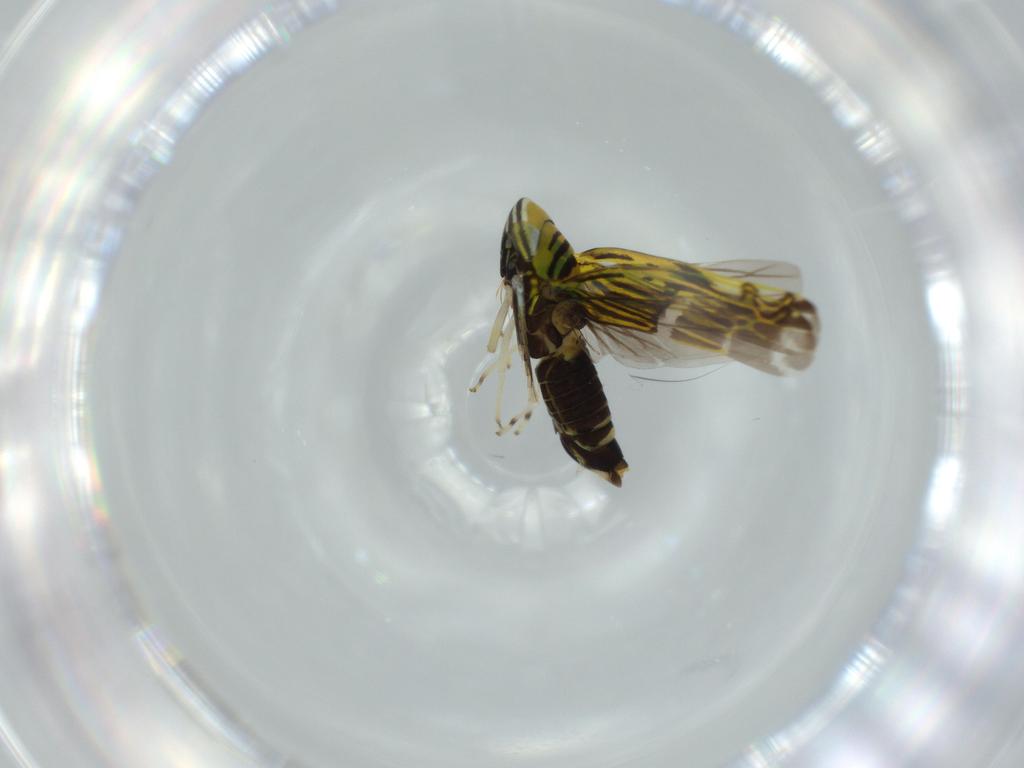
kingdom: Animalia
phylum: Arthropoda
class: Insecta
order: Hemiptera
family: Cicadellidae
